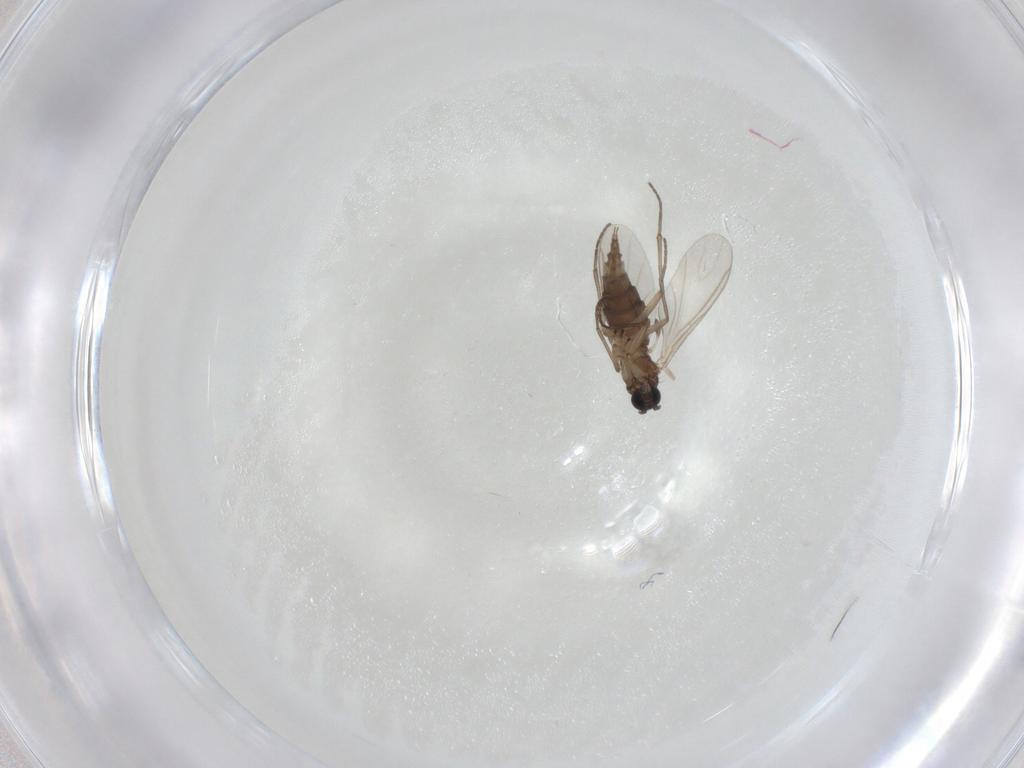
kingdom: Animalia
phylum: Arthropoda
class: Insecta
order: Diptera
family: Sciaridae
